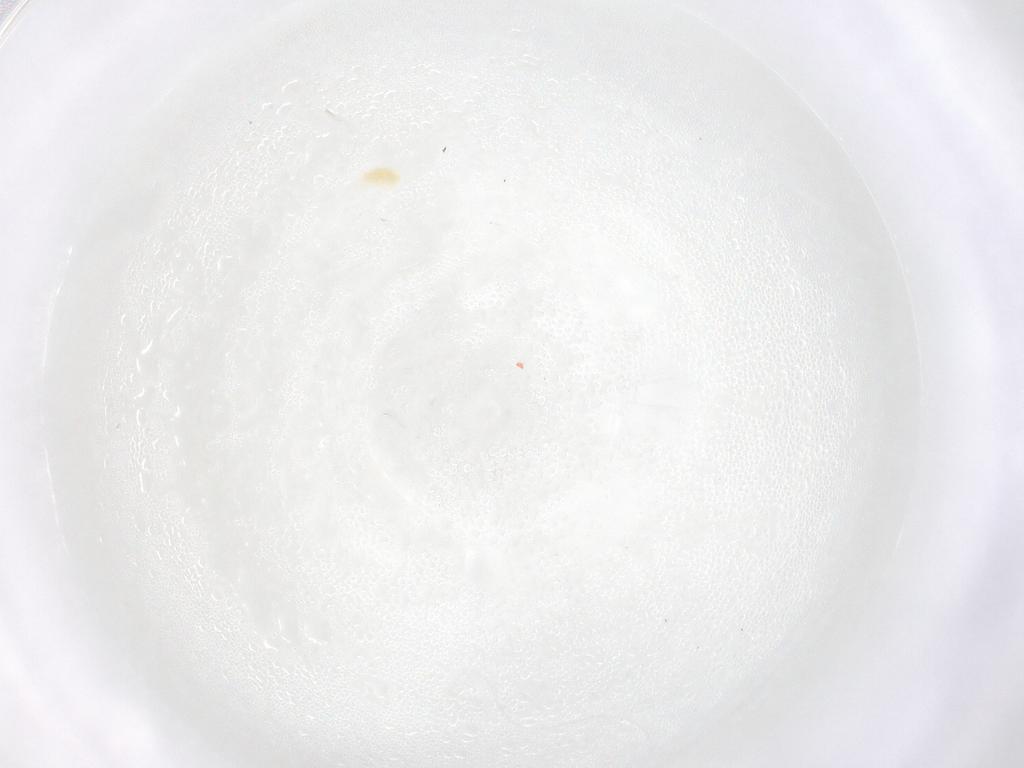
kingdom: Animalia
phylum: Arthropoda
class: Arachnida
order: Trombidiformes
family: Eupodidae
